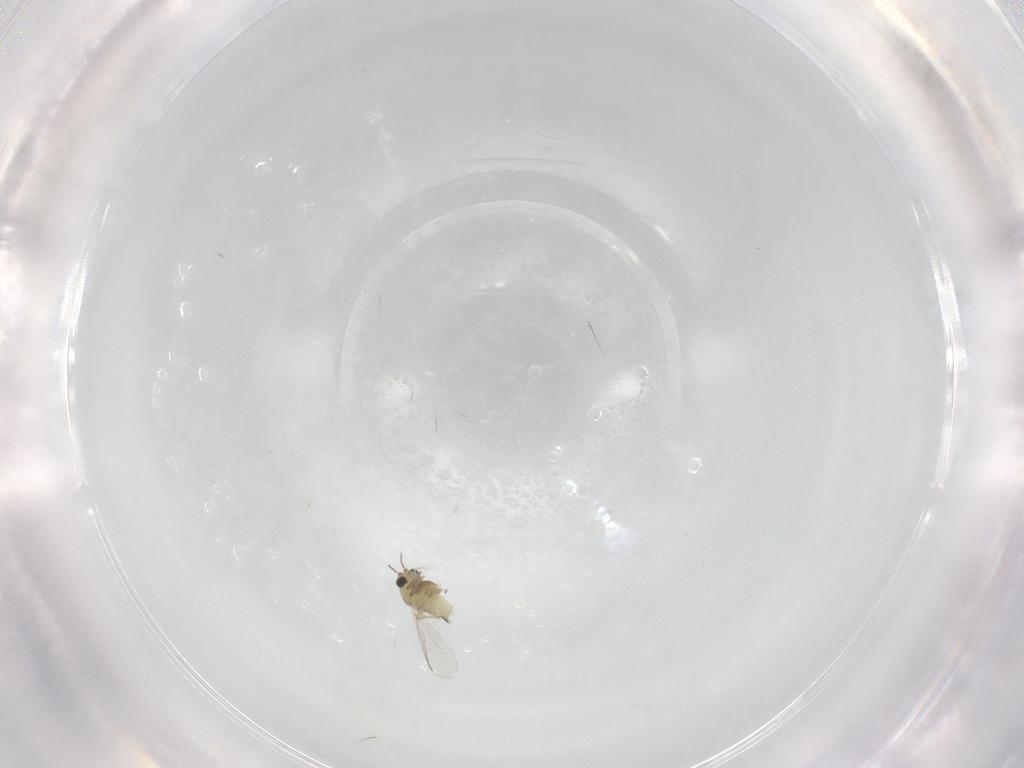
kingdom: Animalia
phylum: Arthropoda
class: Insecta
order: Diptera
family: Chironomidae
